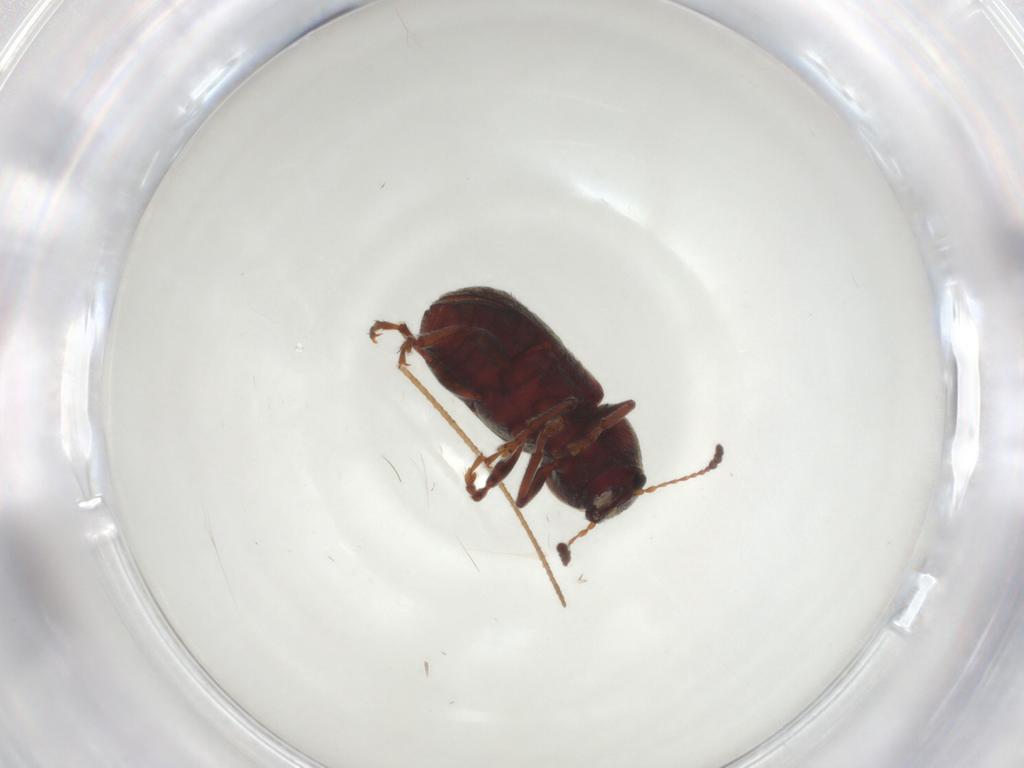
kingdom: Animalia
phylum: Arthropoda
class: Insecta
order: Coleoptera
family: Anthribidae
